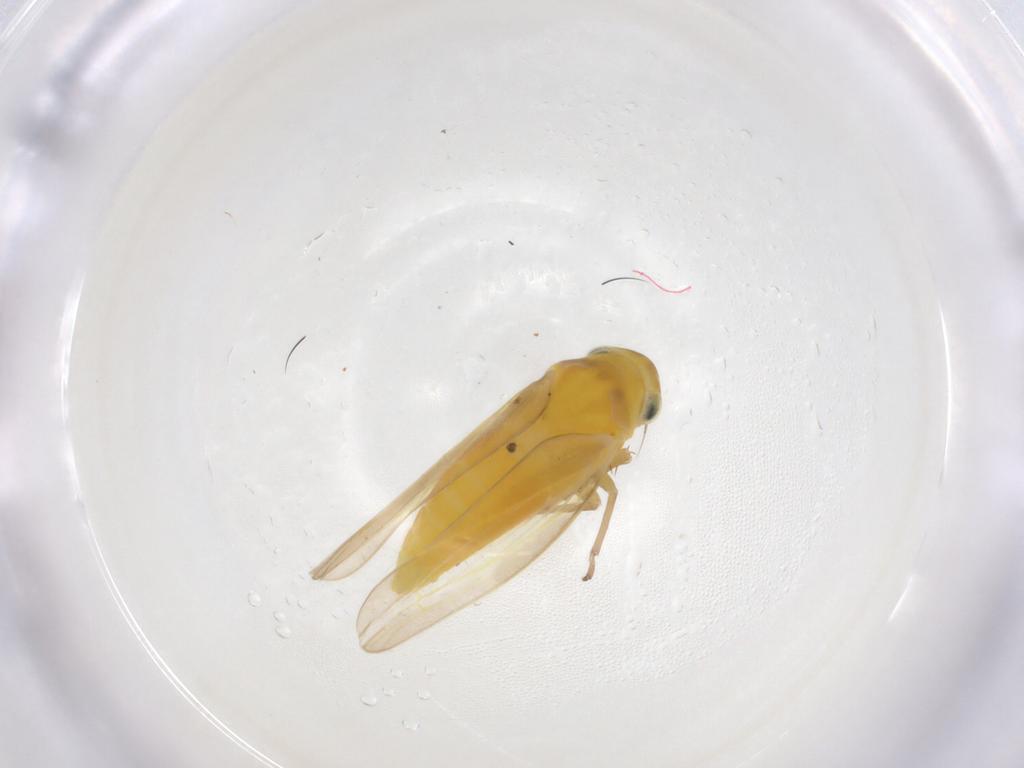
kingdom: Animalia
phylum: Arthropoda
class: Insecta
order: Hemiptera
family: Cicadellidae
